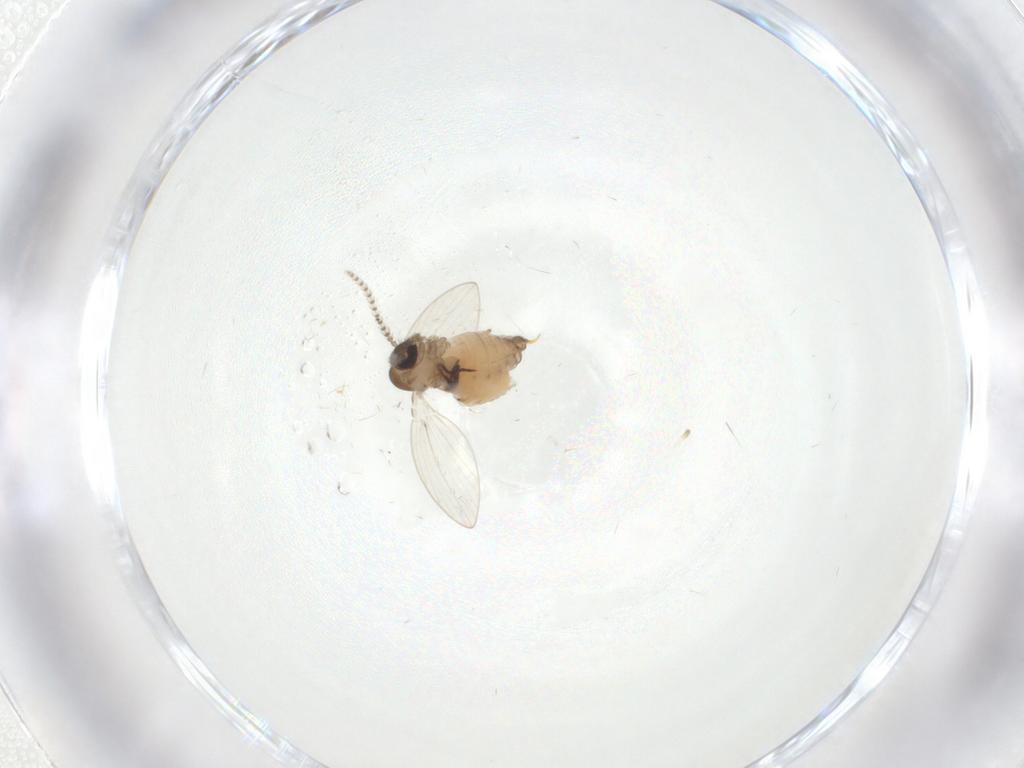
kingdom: Animalia
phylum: Arthropoda
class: Insecta
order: Diptera
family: Psychodidae
